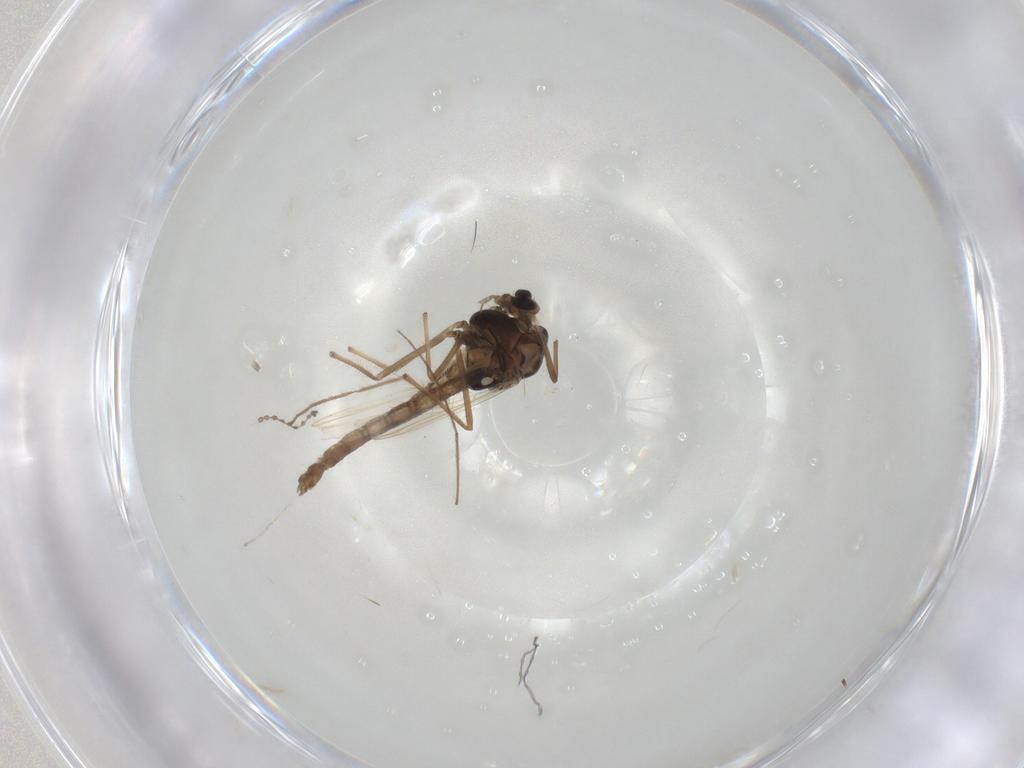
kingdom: Animalia
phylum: Arthropoda
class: Insecta
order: Diptera
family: Chironomidae
